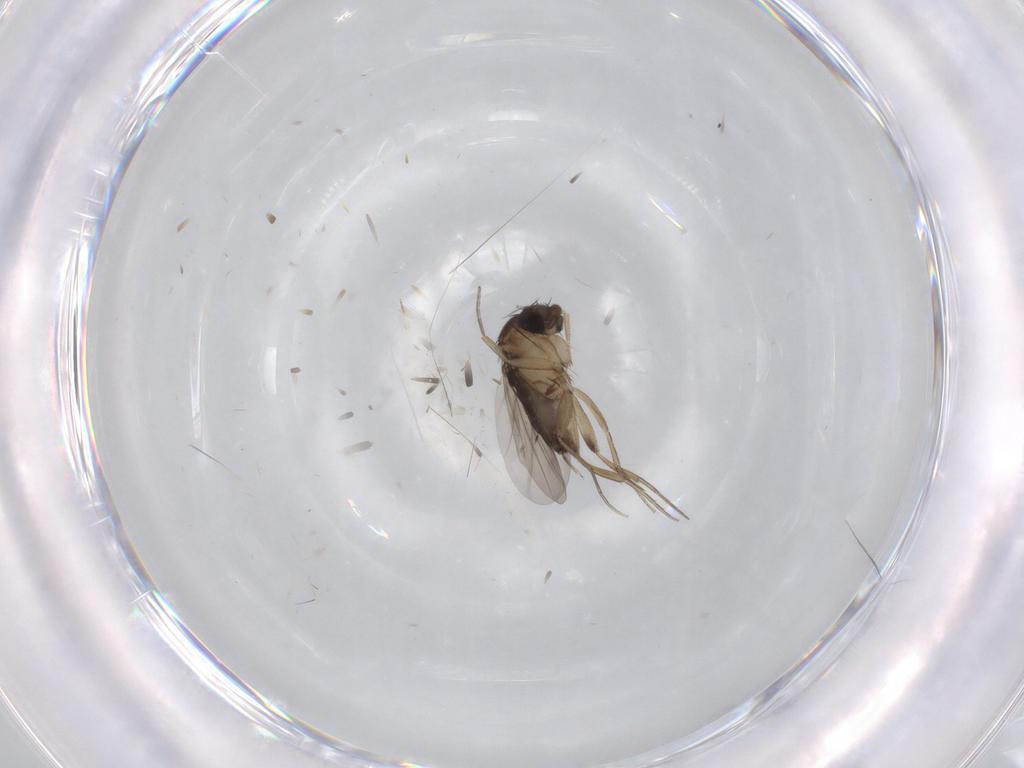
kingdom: Animalia
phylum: Arthropoda
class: Insecta
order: Diptera
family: Phoridae
